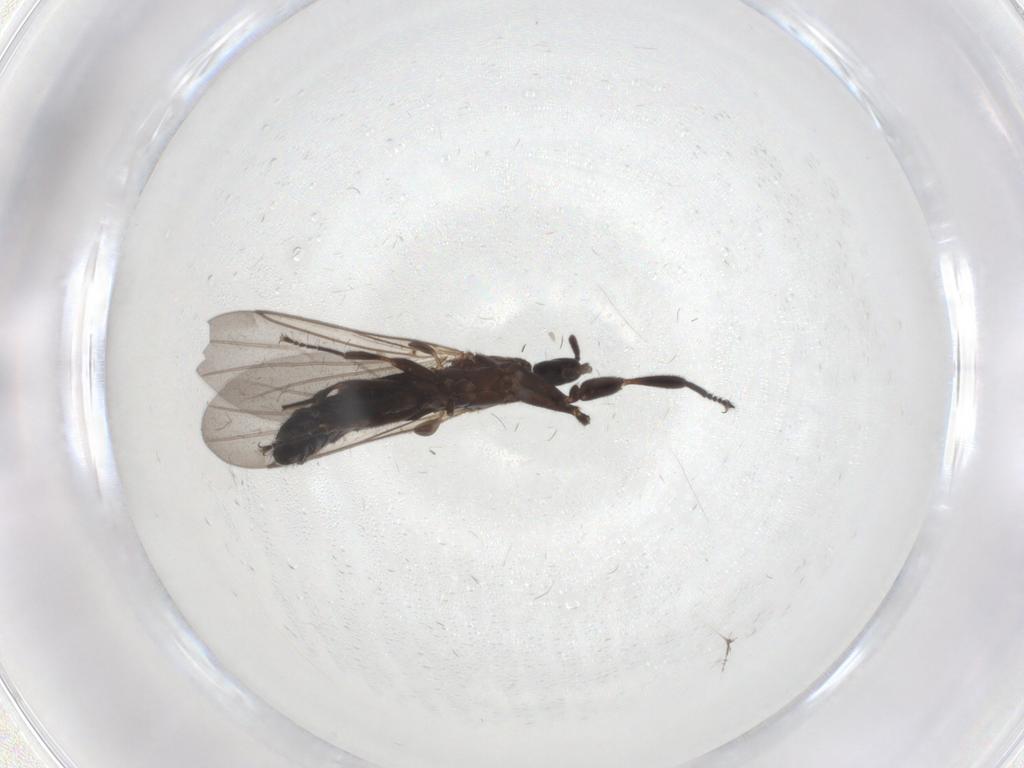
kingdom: Animalia
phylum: Arthropoda
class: Insecta
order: Diptera
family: Scatopsidae
